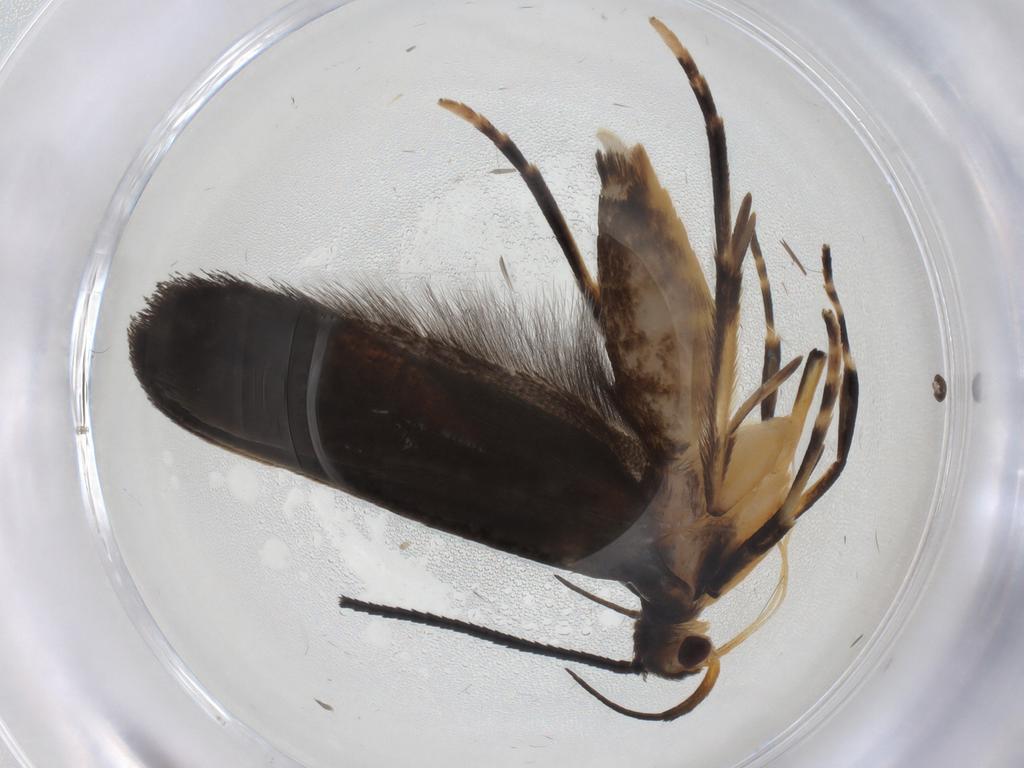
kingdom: Animalia
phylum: Arthropoda
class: Insecta
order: Lepidoptera
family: Gelechiidae
